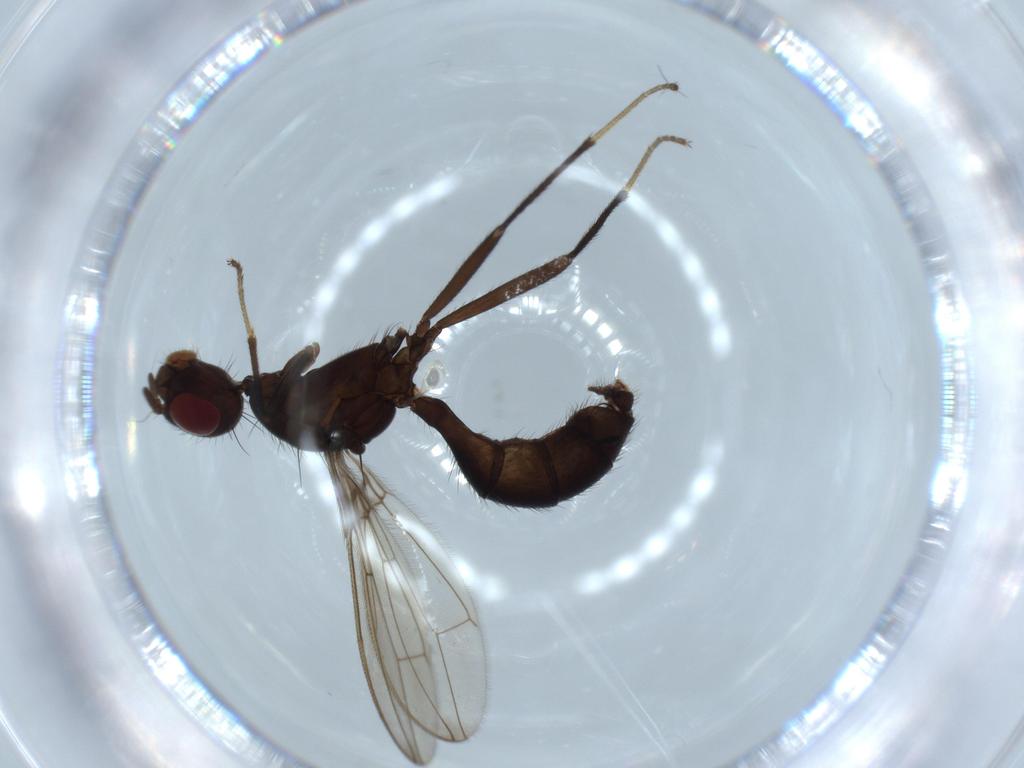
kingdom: Animalia
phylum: Arthropoda
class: Insecta
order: Diptera
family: Richardiidae
